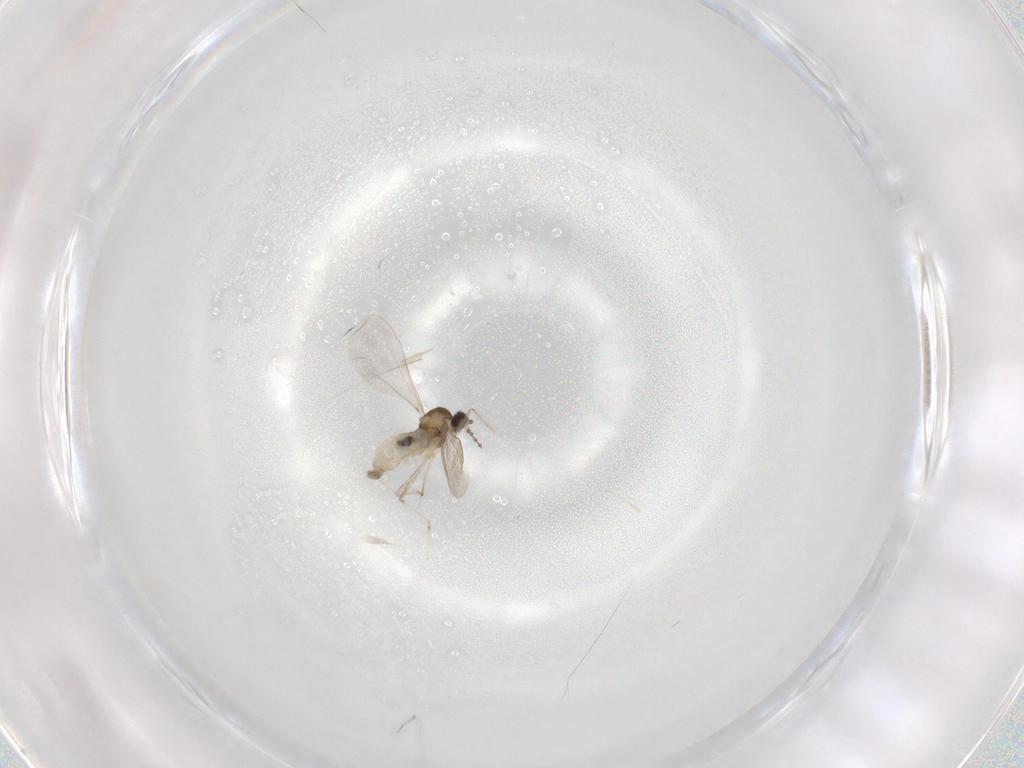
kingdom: Animalia
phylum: Arthropoda
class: Insecta
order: Diptera
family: Cecidomyiidae
